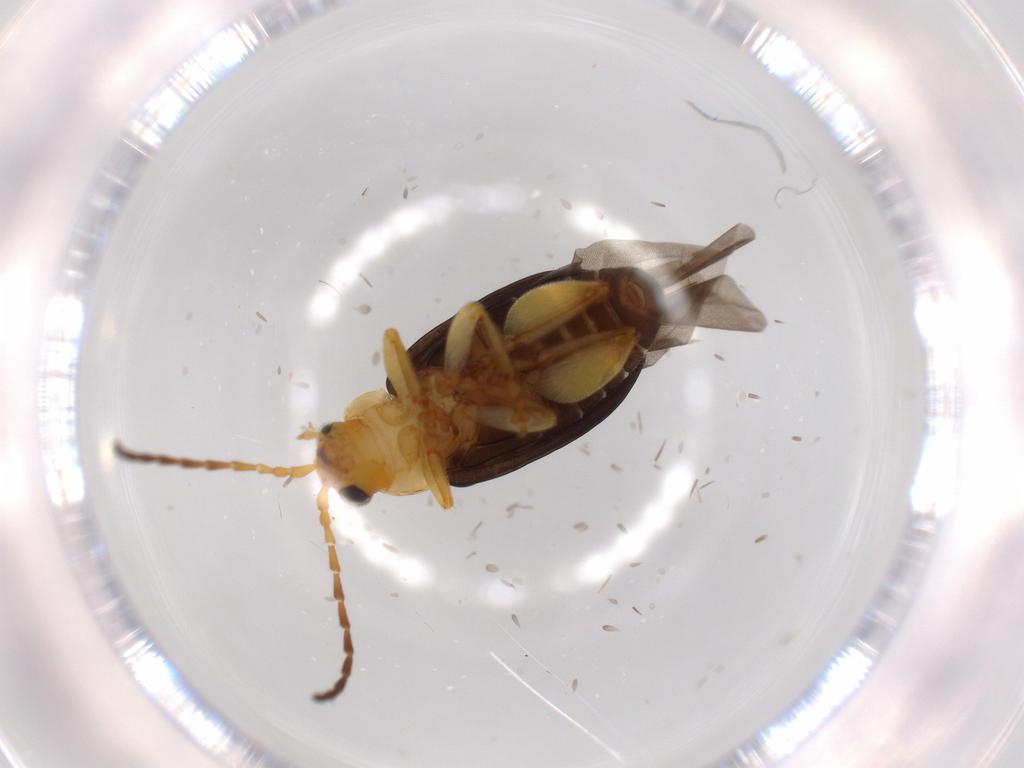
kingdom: Animalia
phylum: Arthropoda
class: Insecta
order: Coleoptera
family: Chrysomelidae
